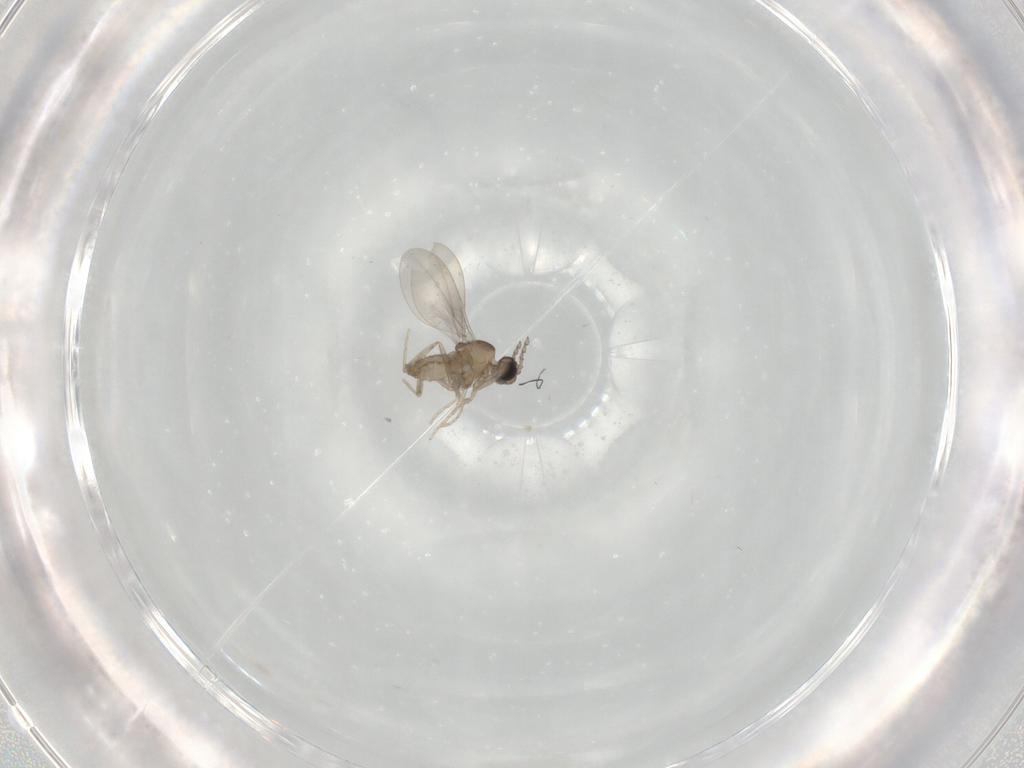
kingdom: Animalia
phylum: Arthropoda
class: Insecta
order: Diptera
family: Cecidomyiidae
